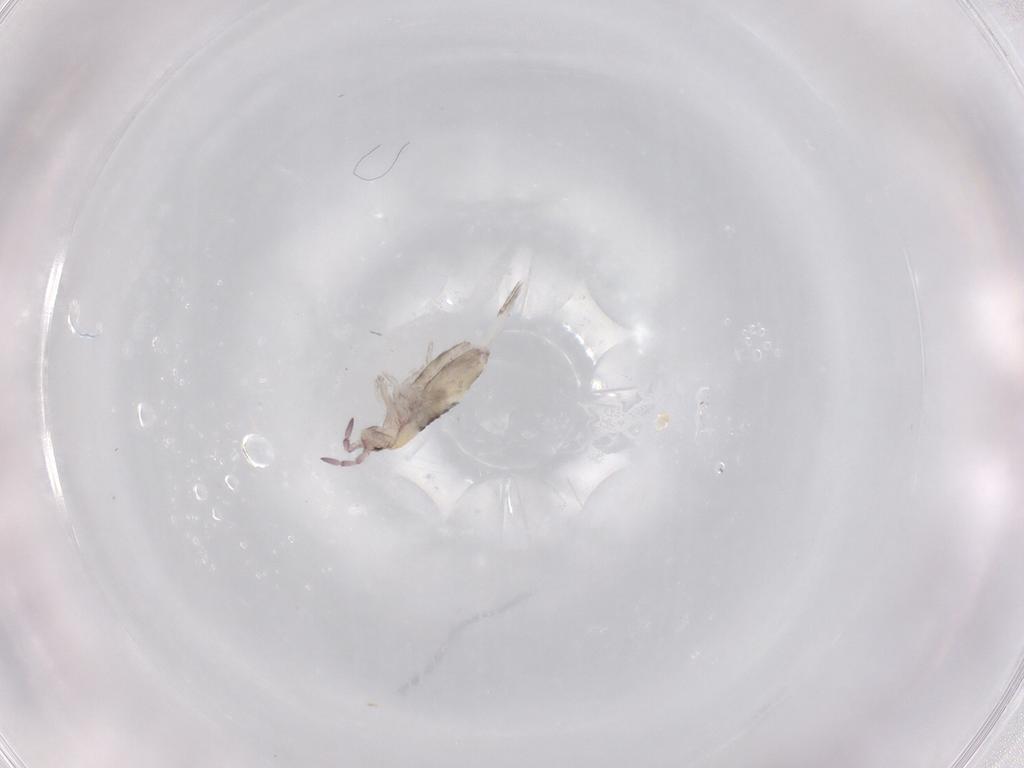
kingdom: Animalia
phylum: Arthropoda
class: Collembola
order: Entomobryomorpha
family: Entomobryidae
